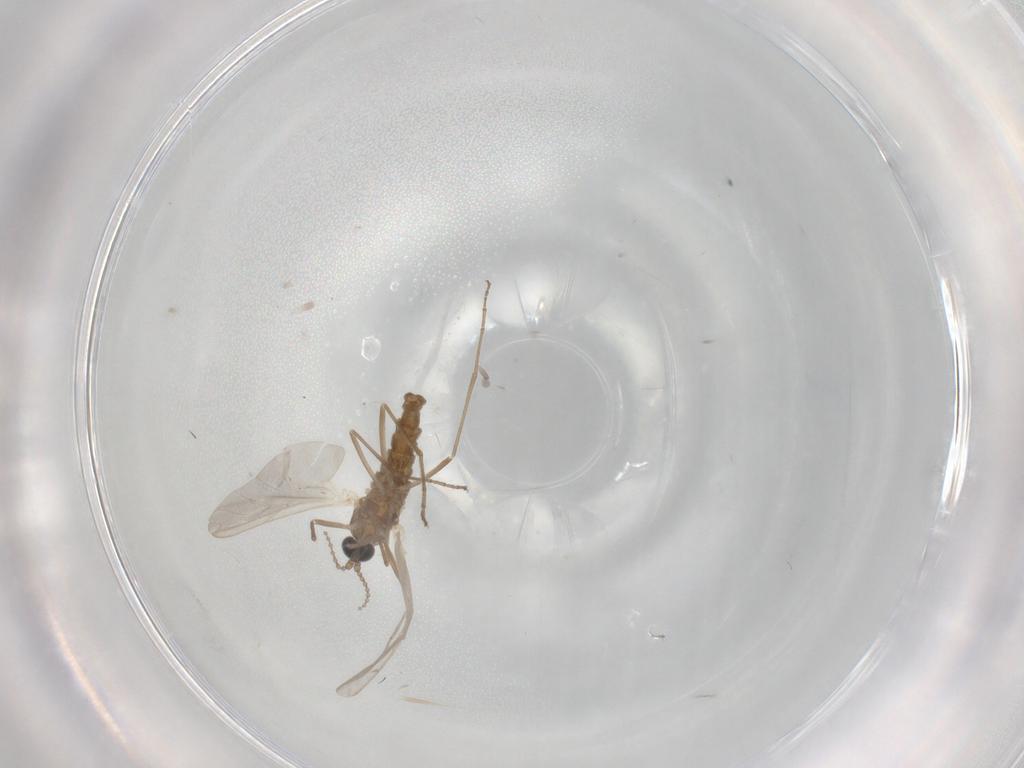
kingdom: Animalia
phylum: Arthropoda
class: Insecta
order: Diptera
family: Cecidomyiidae
